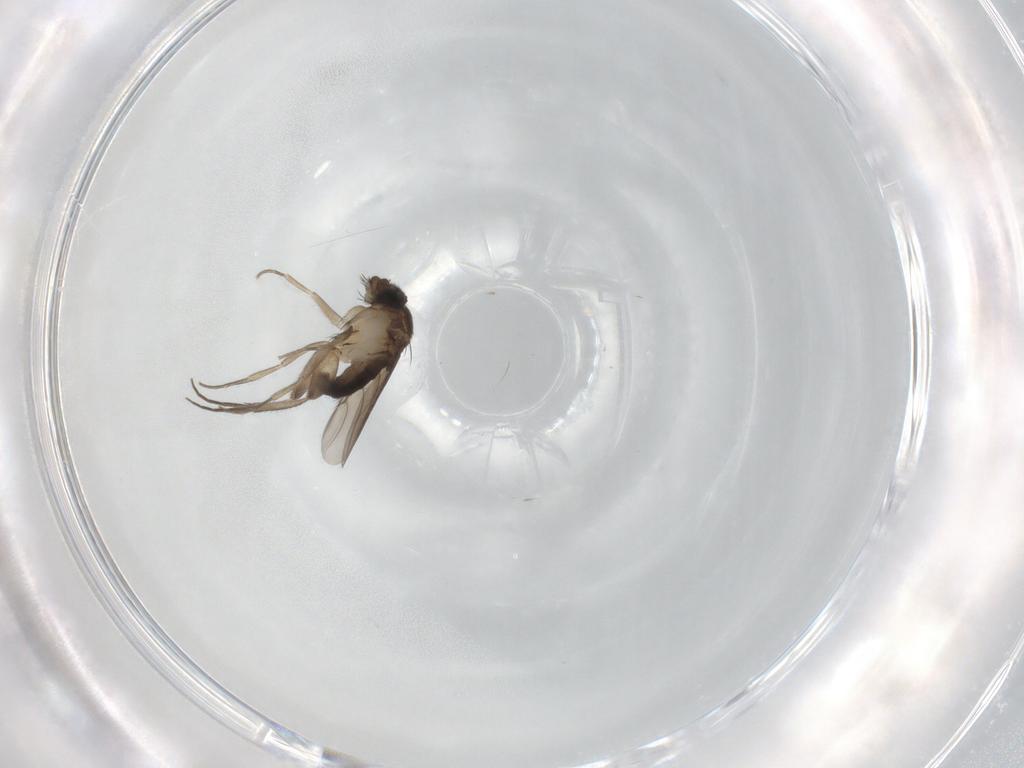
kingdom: Animalia
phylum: Arthropoda
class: Insecta
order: Diptera
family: Phoridae
